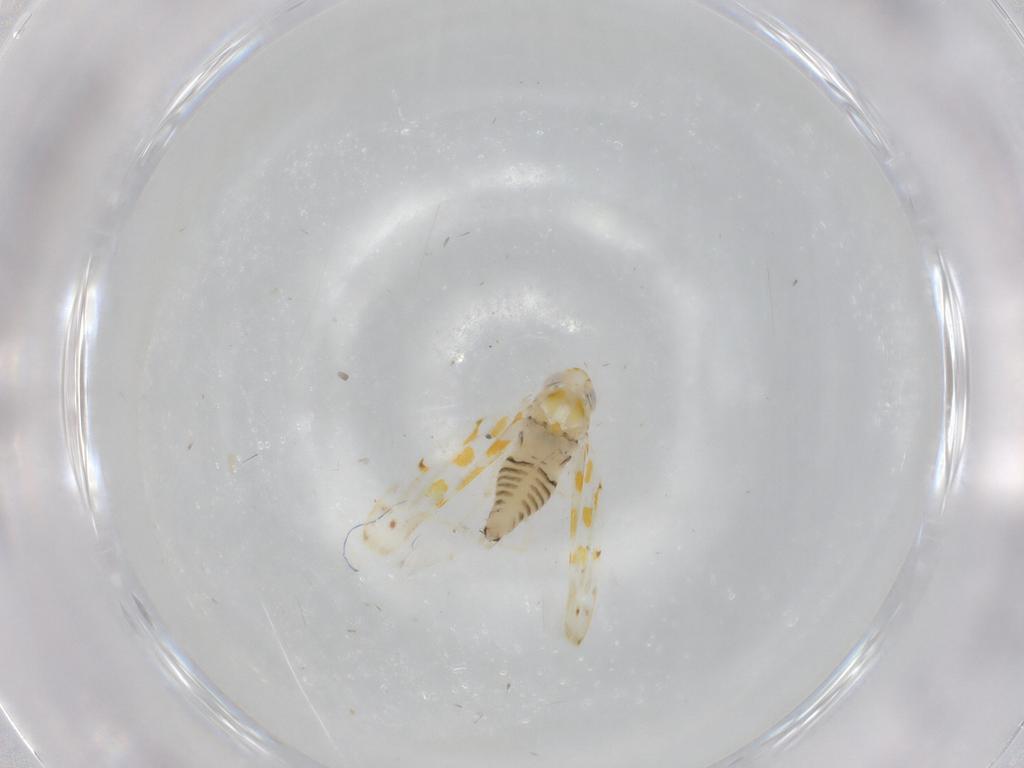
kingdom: Animalia
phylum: Arthropoda
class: Insecta
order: Hemiptera
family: Cicadellidae
